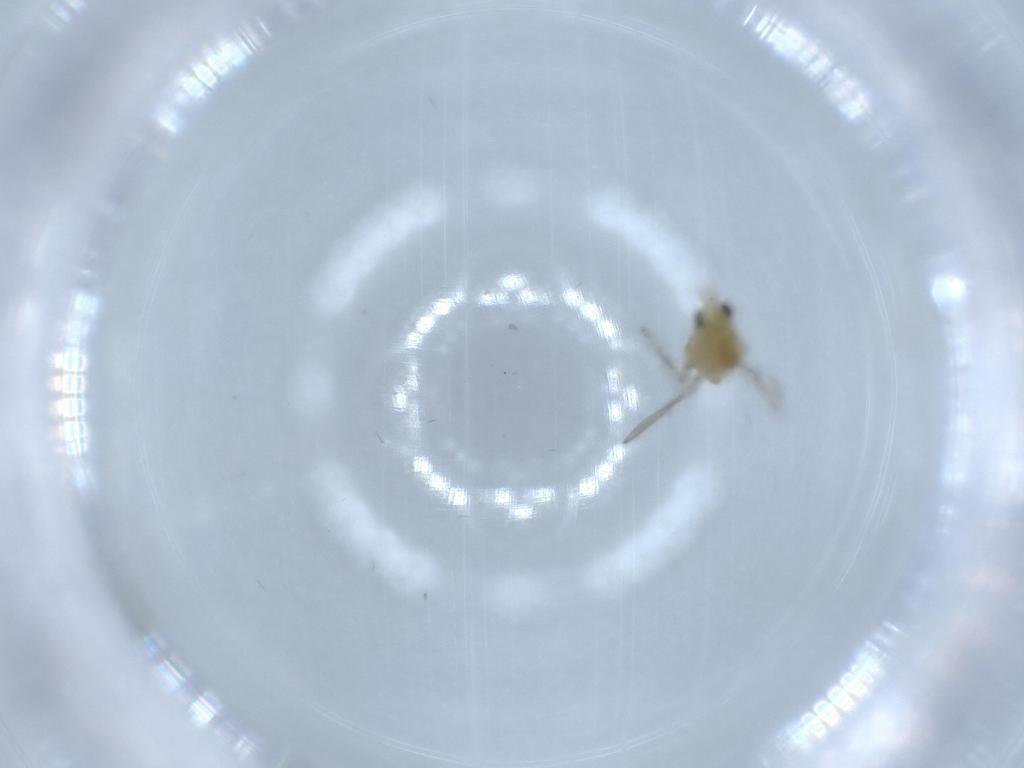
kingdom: Animalia
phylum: Arthropoda
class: Insecta
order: Diptera
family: Chironomidae
